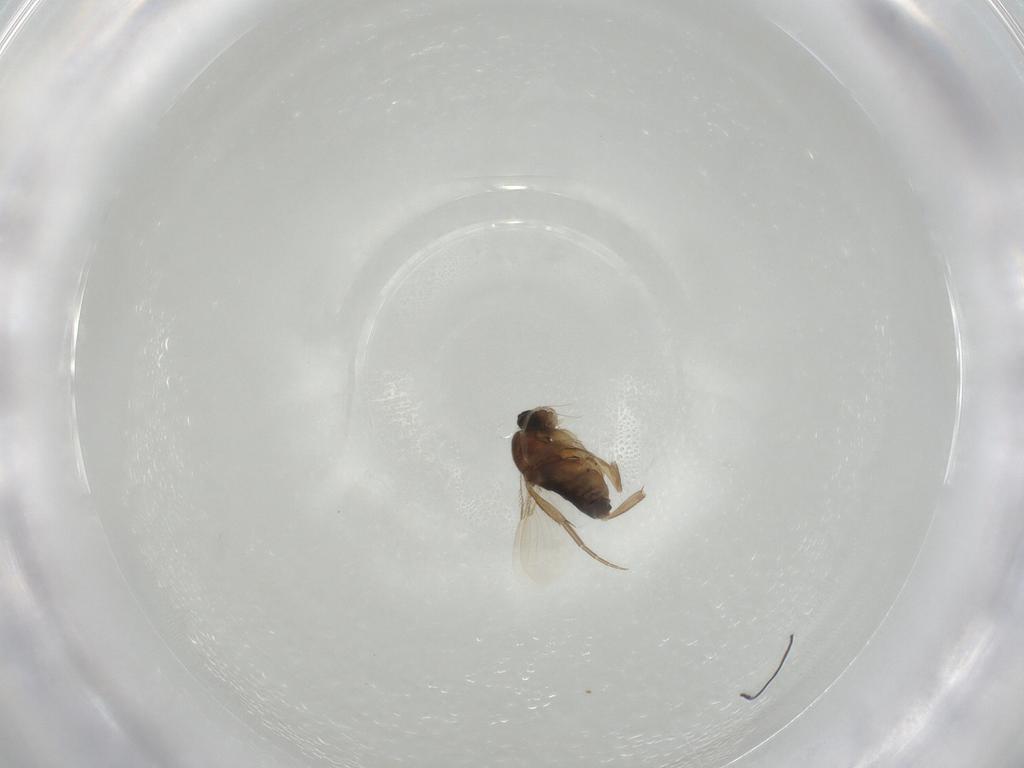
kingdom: Animalia
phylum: Arthropoda
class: Insecta
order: Diptera
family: Phoridae
